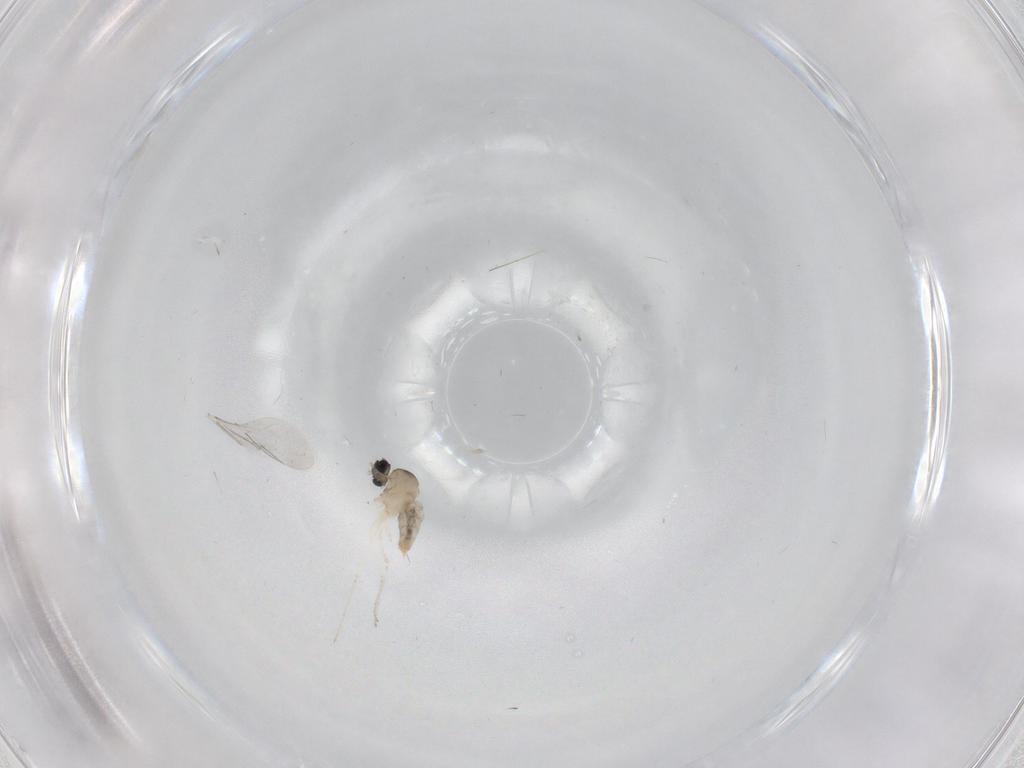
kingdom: Animalia
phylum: Arthropoda
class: Insecta
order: Diptera
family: Cecidomyiidae
